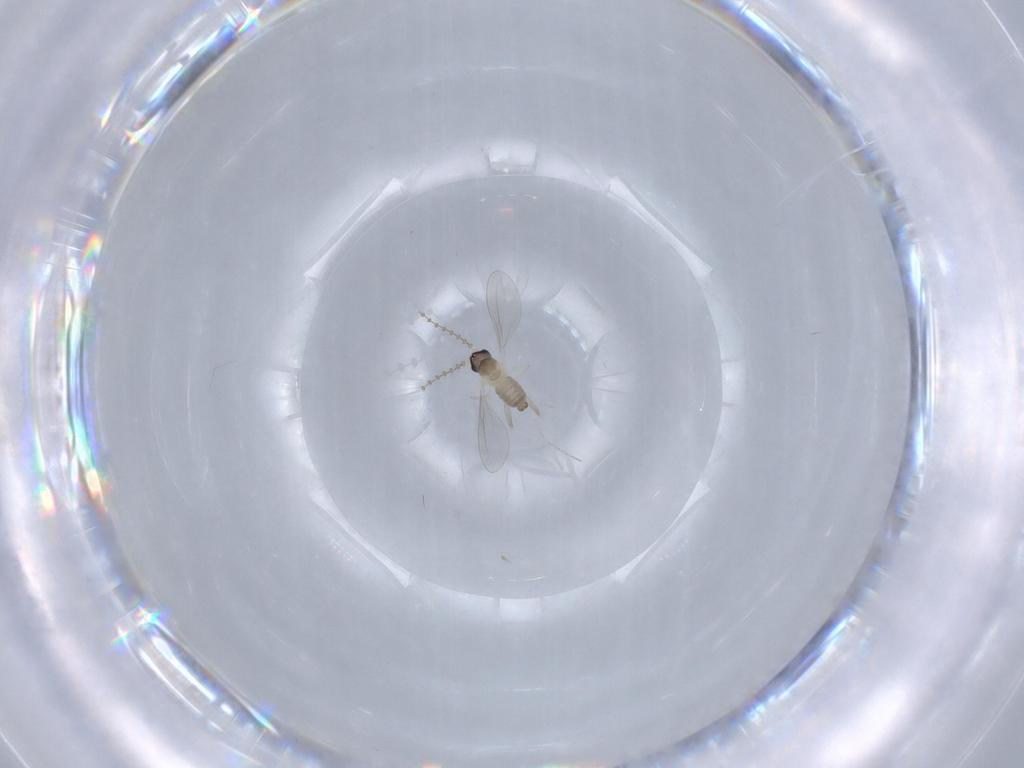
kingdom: Animalia
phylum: Arthropoda
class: Insecta
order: Diptera
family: Cecidomyiidae
